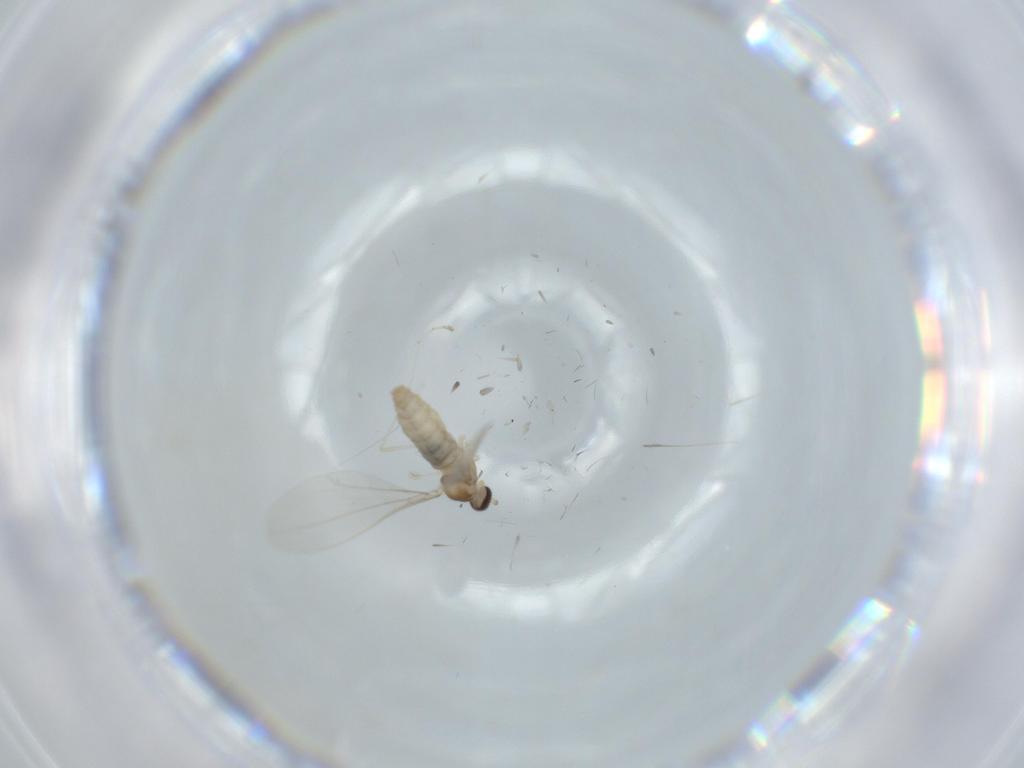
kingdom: Animalia
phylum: Arthropoda
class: Insecta
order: Diptera
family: Cecidomyiidae
